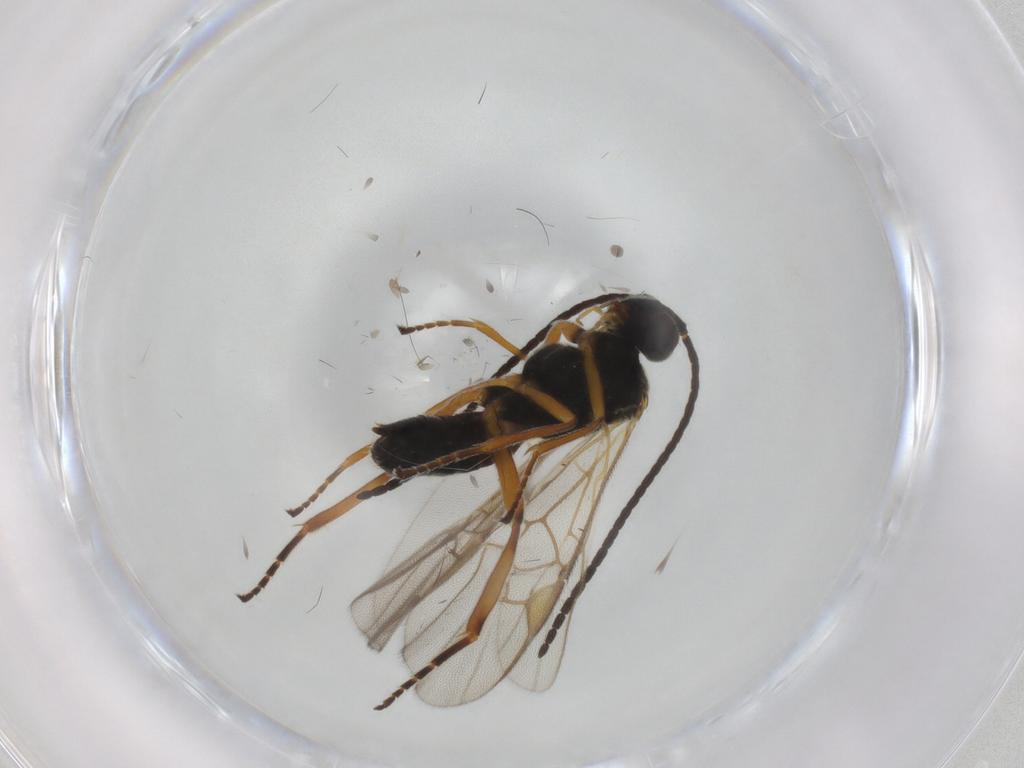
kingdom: Animalia
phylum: Arthropoda
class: Insecta
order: Hymenoptera
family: Braconidae
